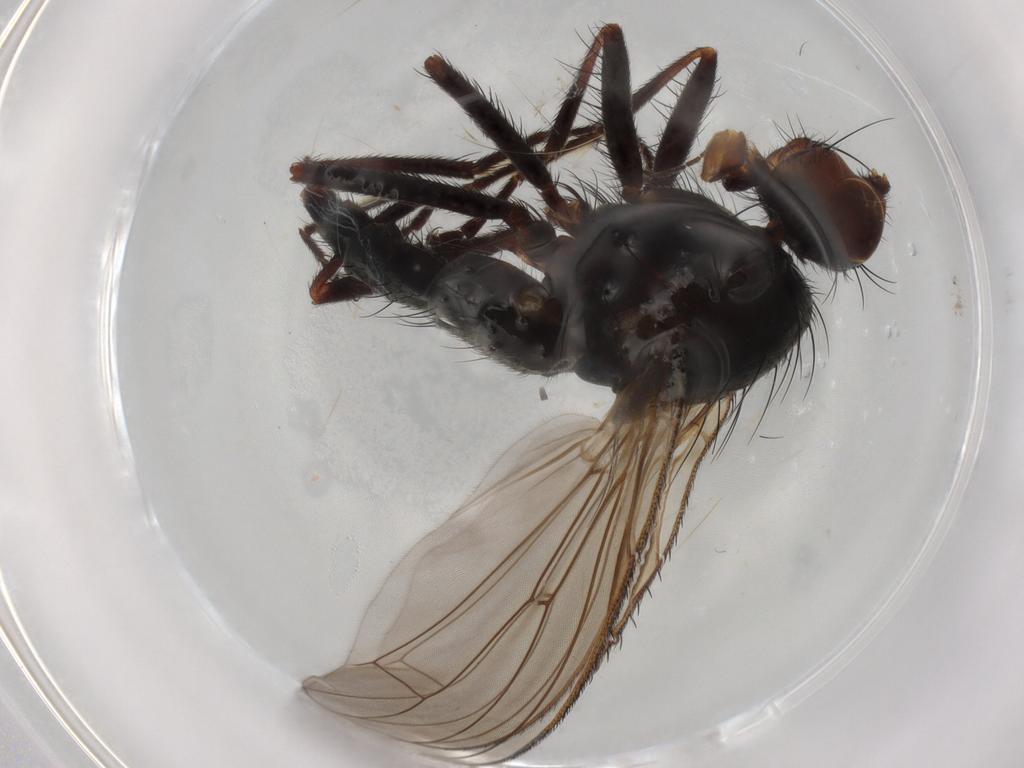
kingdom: Animalia
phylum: Arthropoda
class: Insecta
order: Diptera
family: Heleomyzidae
